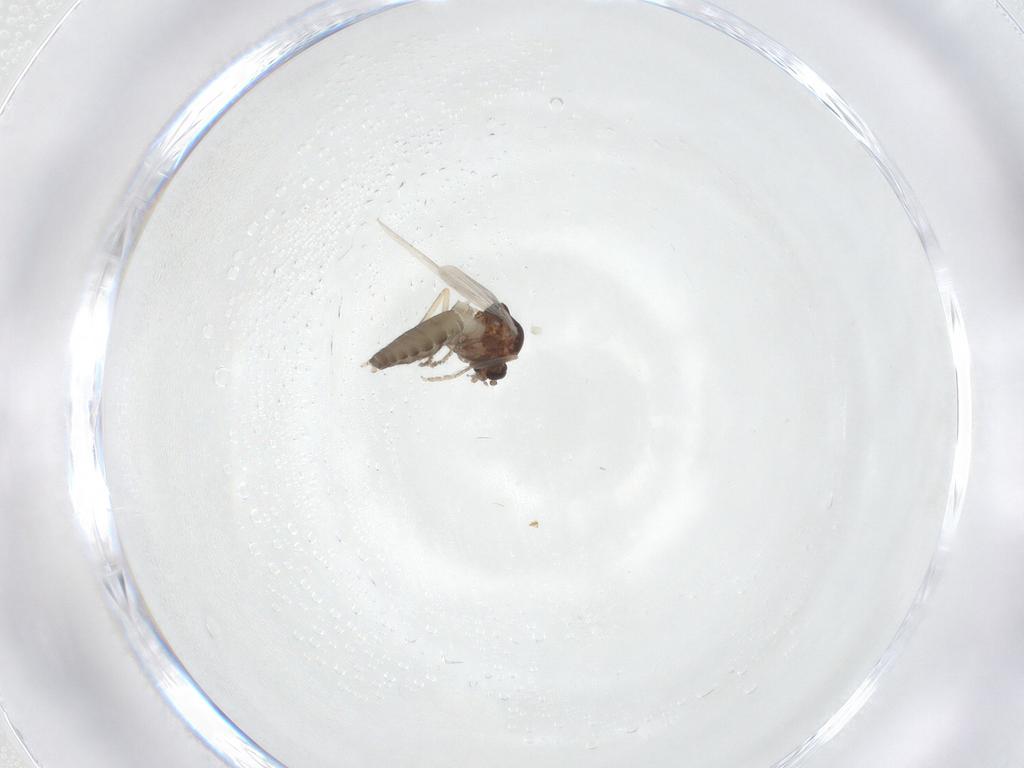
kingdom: Animalia
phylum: Arthropoda
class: Insecta
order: Diptera
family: Ceratopogonidae
